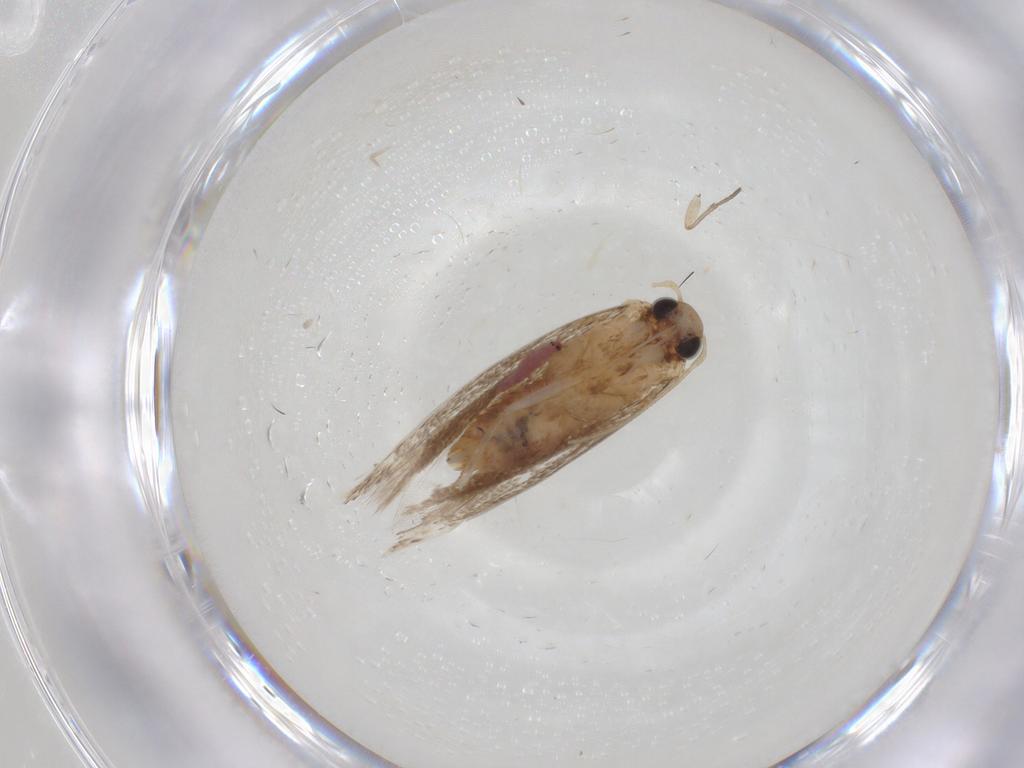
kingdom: Animalia
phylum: Arthropoda
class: Insecta
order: Lepidoptera
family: Elachistidae
